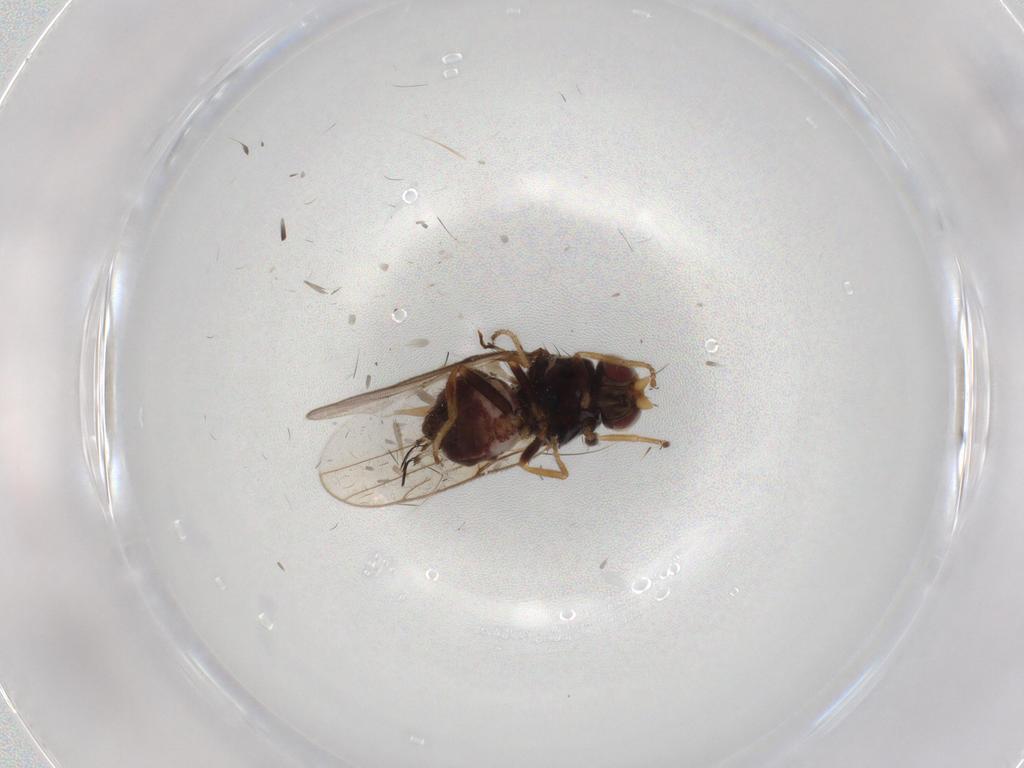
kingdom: Animalia
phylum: Arthropoda
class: Insecta
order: Diptera
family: Chloropidae
